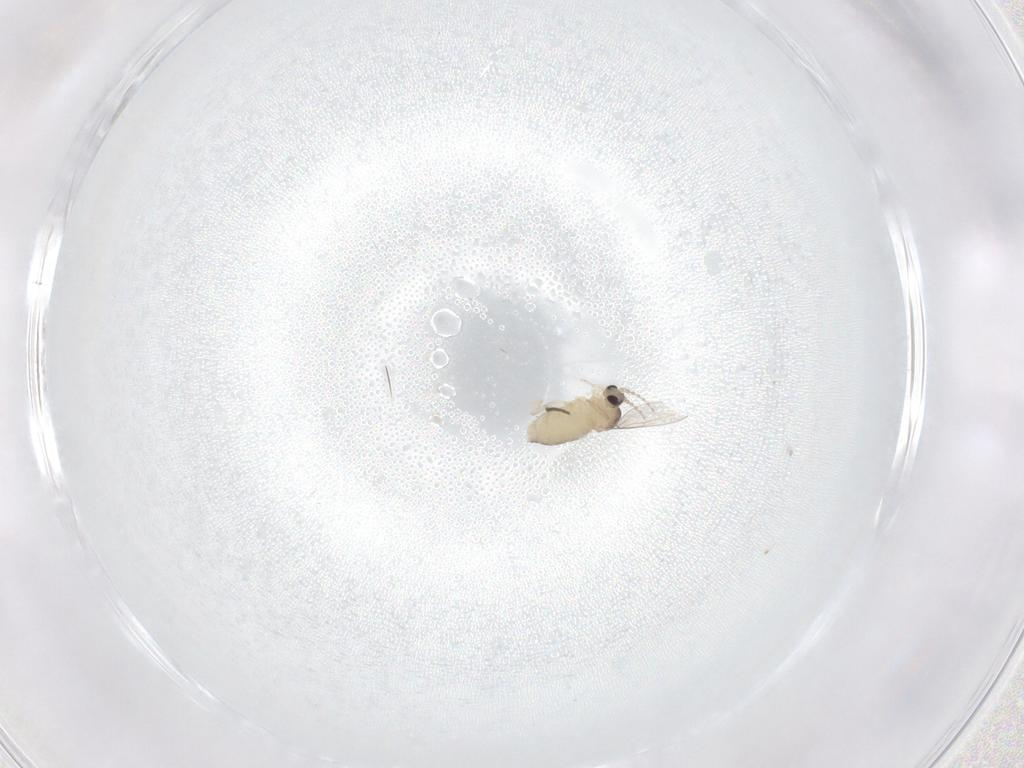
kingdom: Animalia
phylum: Arthropoda
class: Insecta
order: Diptera
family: Cecidomyiidae
